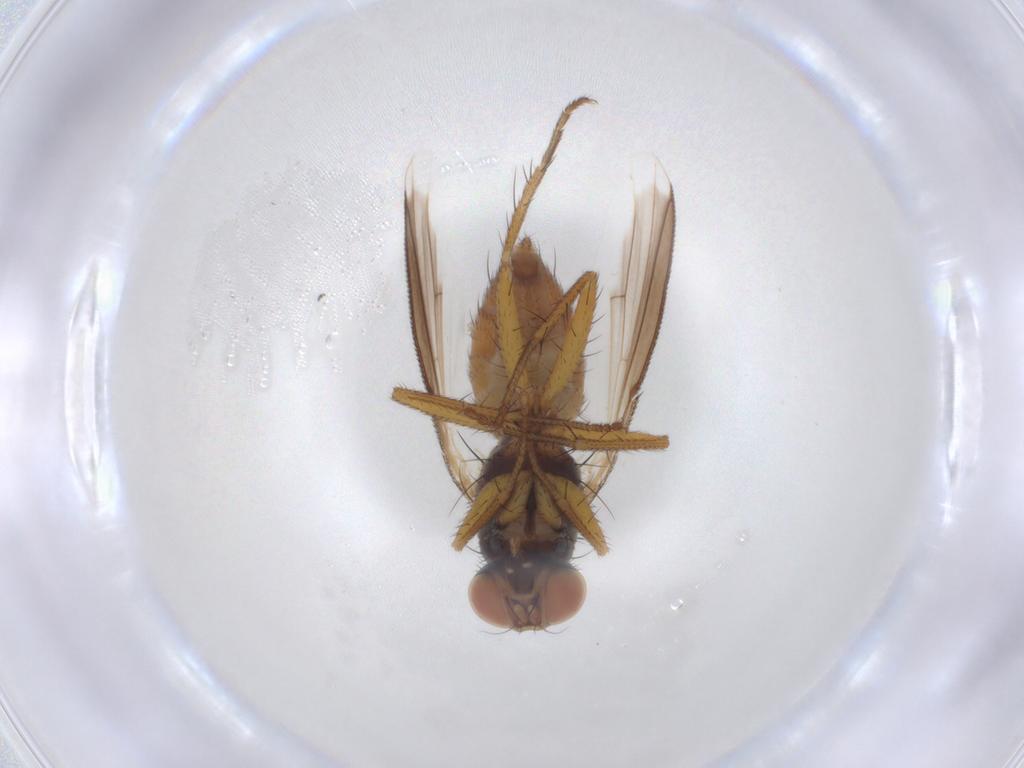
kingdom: Animalia
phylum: Arthropoda
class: Insecta
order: Diptera
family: Chironomidae
